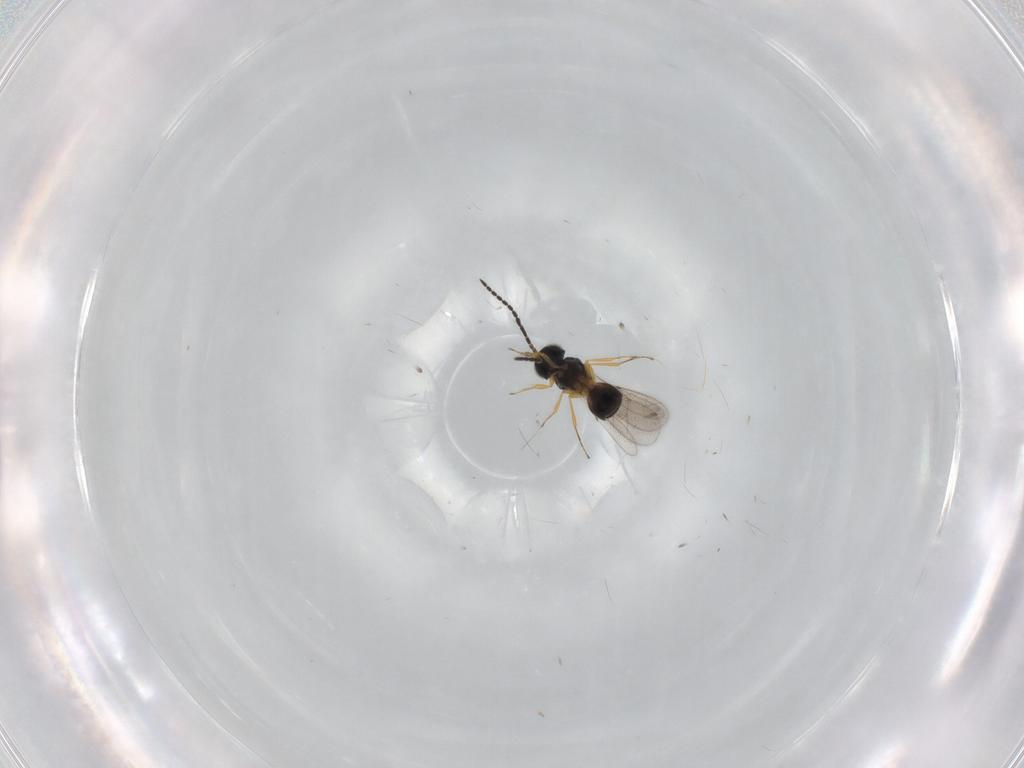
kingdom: Animalia
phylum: Arthropoda
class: Insecta
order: Hymenoptera
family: Scelionidae
